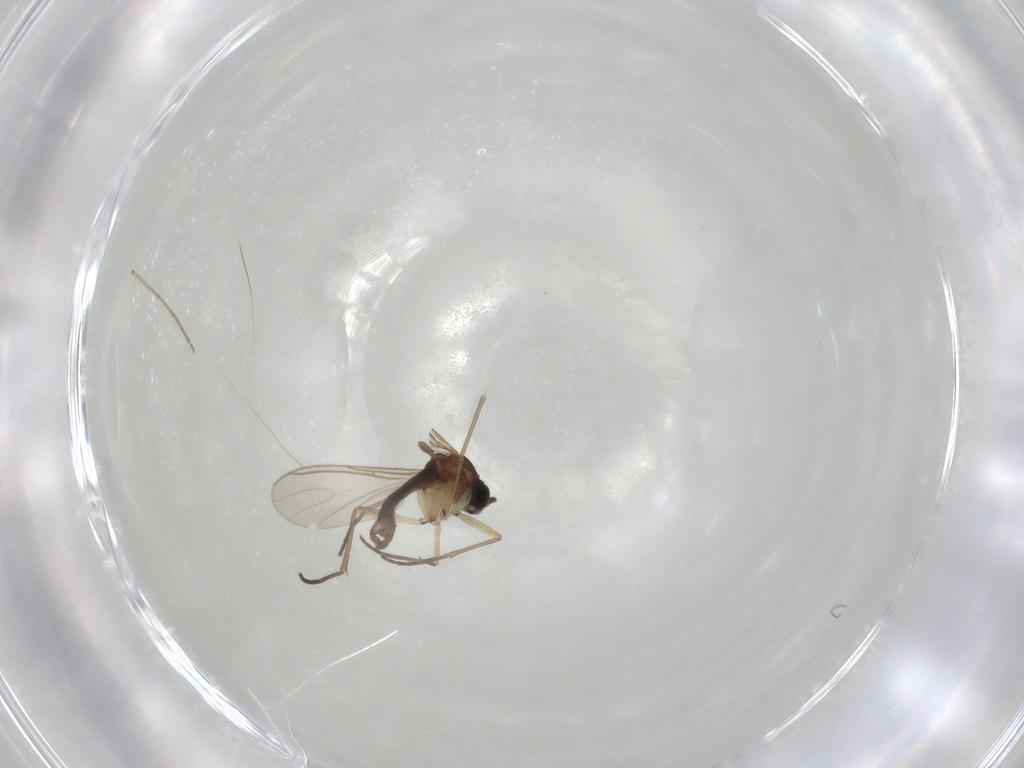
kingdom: Animalia
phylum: Arthropoda
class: Insecta
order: Diptera
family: Sciaridae
